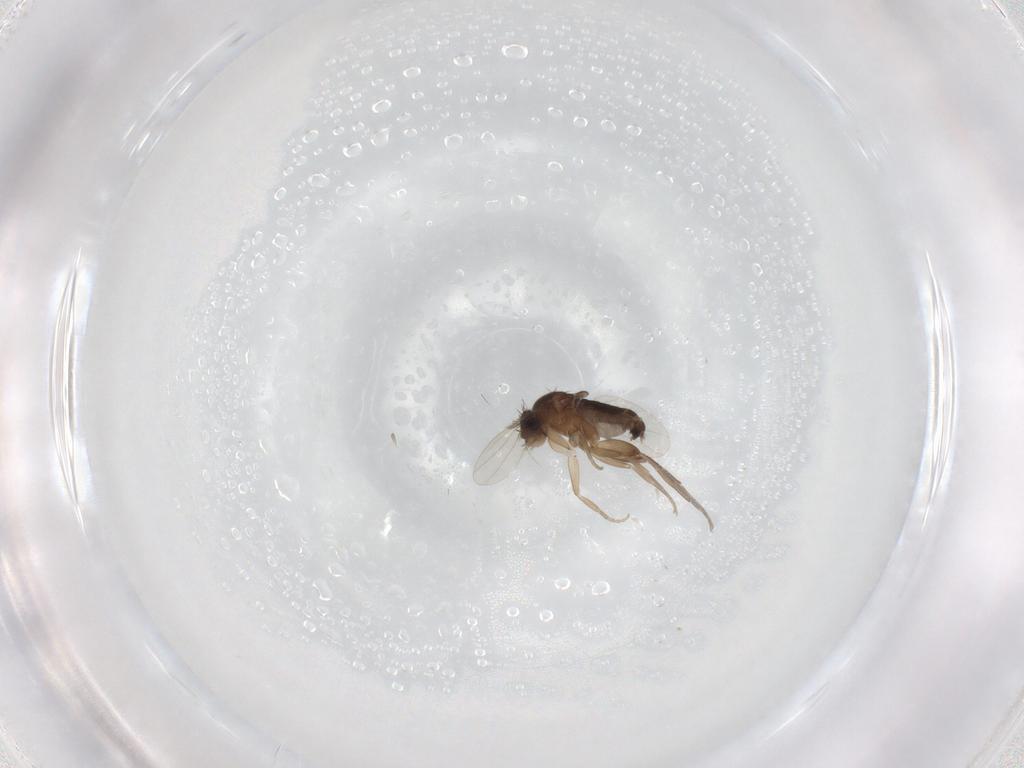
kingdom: Animalia
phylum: Arthropoda
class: Insecta
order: Diptera
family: Phoridae
